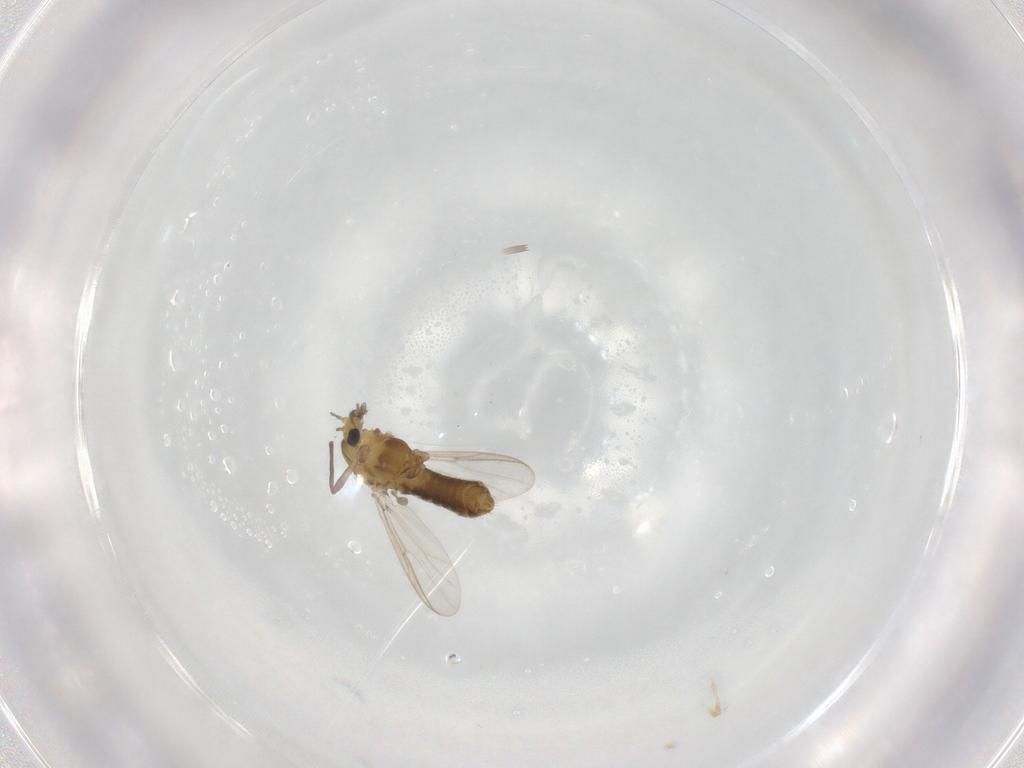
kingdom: Animalia
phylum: Arthropoda
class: Insecta
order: Diptera
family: Chironomidae
